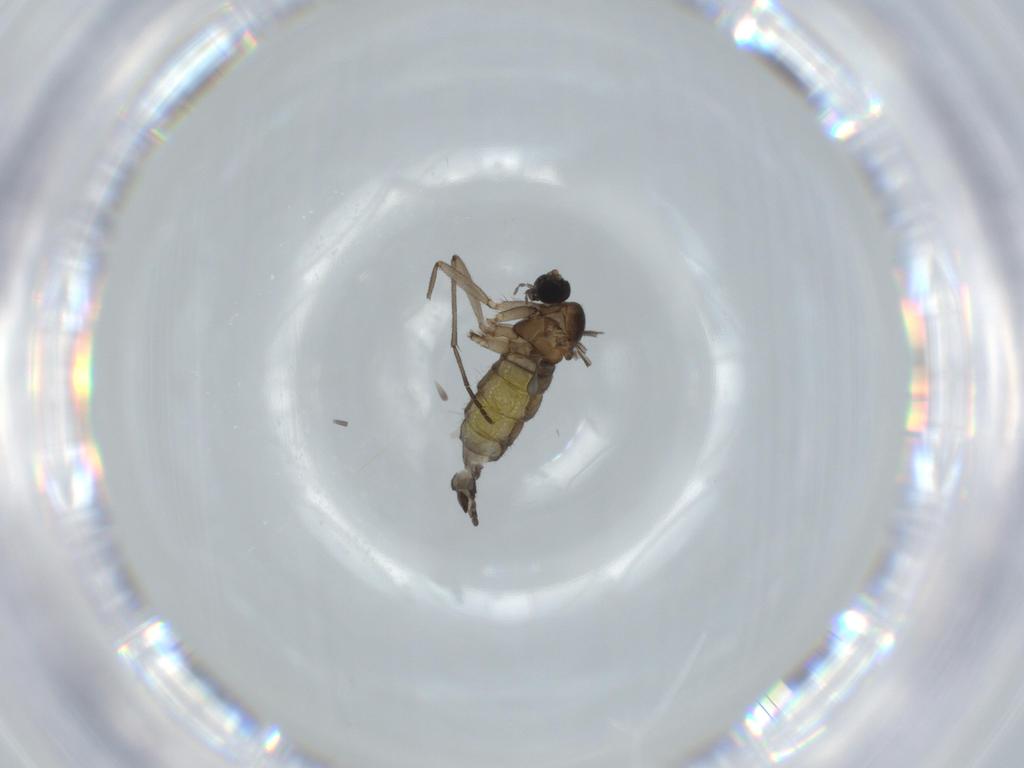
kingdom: Animalia
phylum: Arthropoda
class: Insecta
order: Diptera
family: Sciaridae
